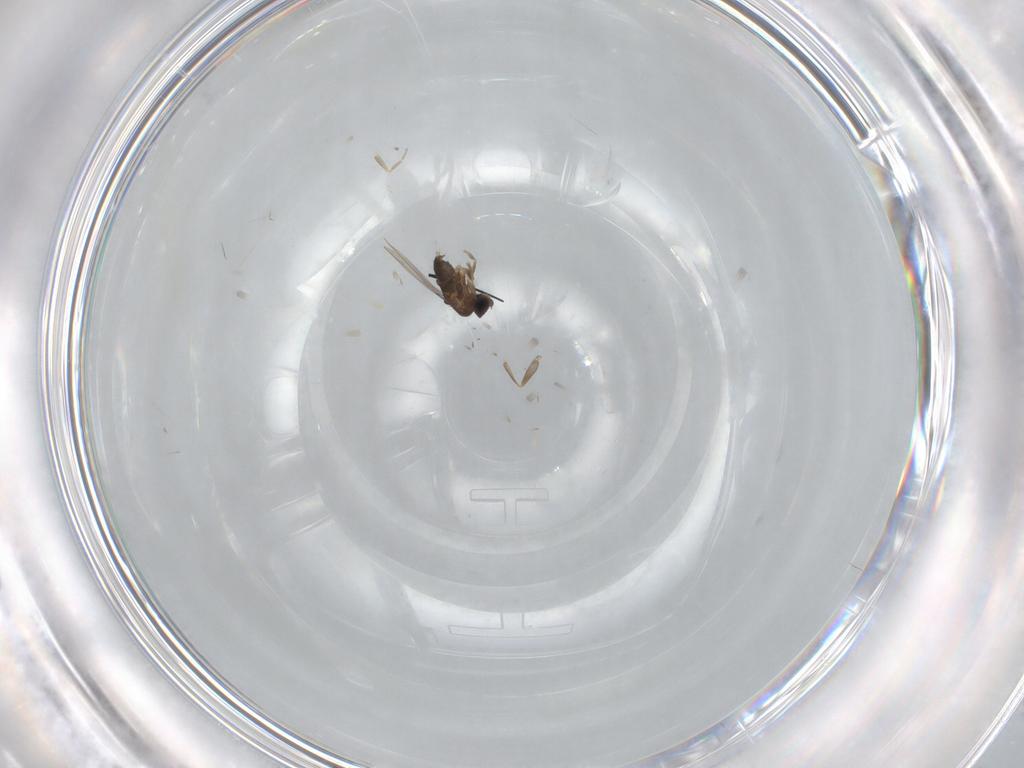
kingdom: Animalia
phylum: Arthropoda
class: Insecta
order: Diptera
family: Phoridae
